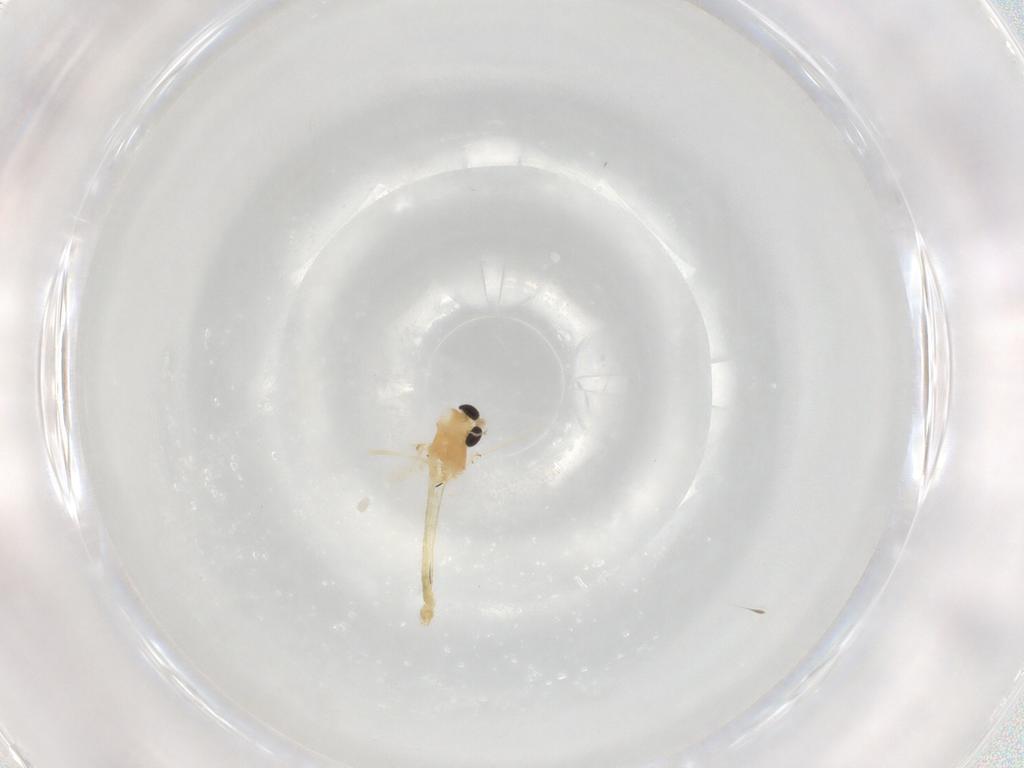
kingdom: Animalia
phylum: Arthropoda
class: Insecta
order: Diptera
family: Chironomidae
